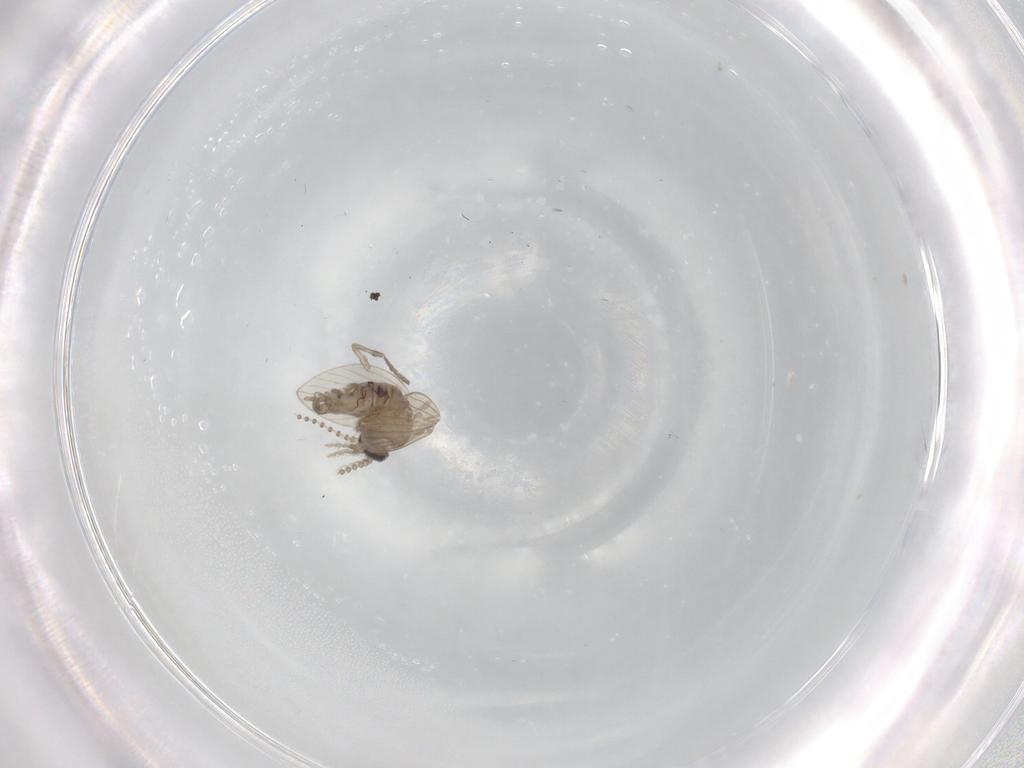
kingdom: Animalia
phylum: Arthropoda
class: Insecta
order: Diptera
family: Psychodidae
